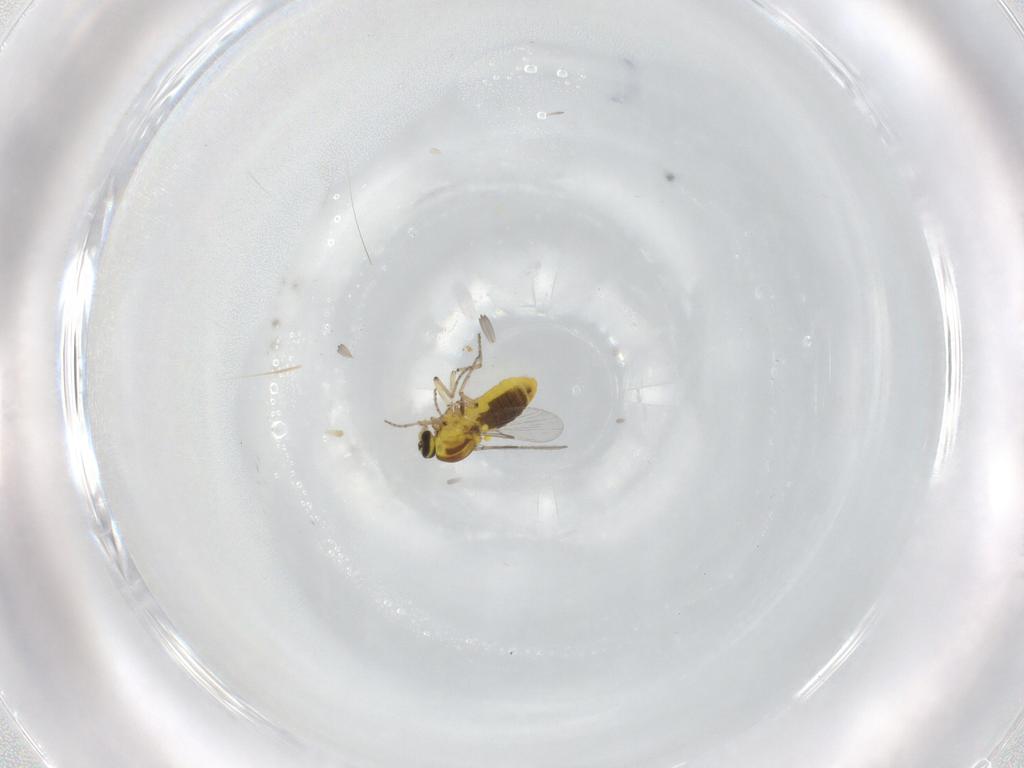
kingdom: Animalia
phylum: Arthropoda
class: Insecta
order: Diptera
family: Ceratopogonidae
